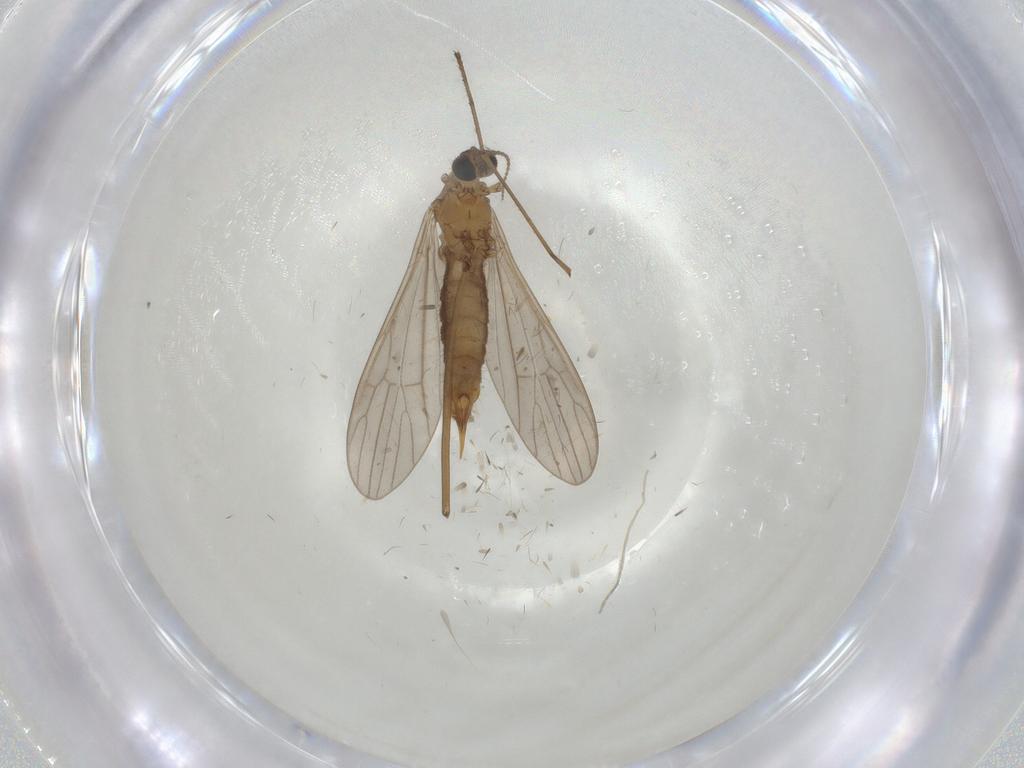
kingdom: Animalia
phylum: Arthropoda
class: Insecta
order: Diptera
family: Limoniidae
